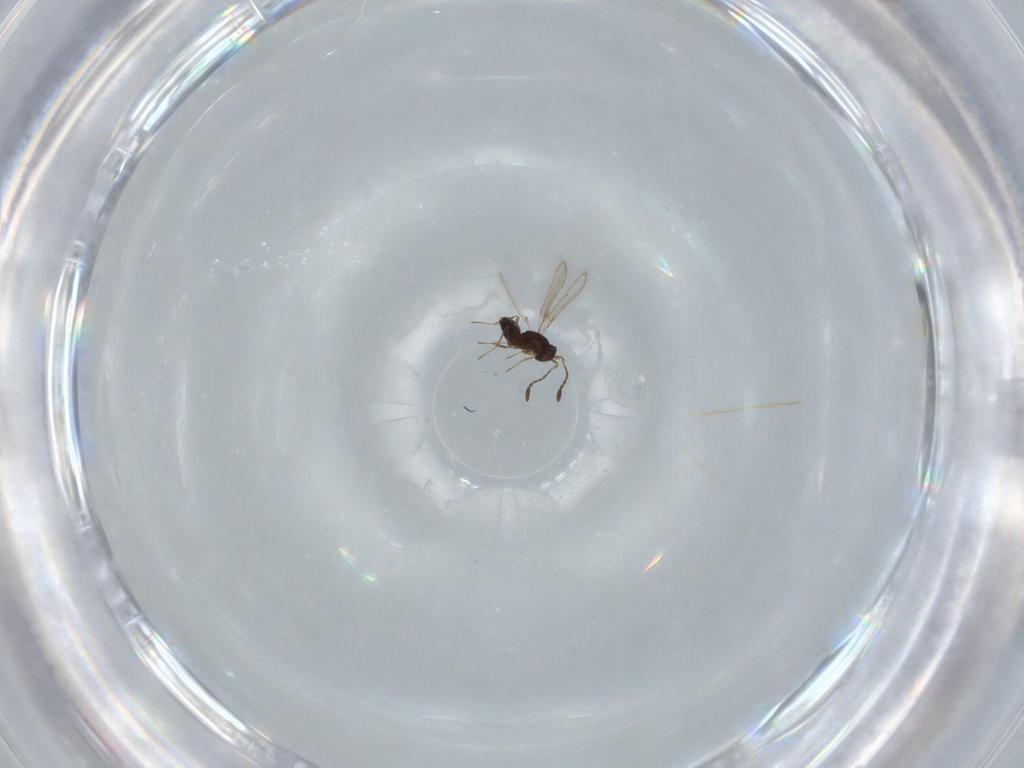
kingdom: Animalia
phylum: Arthropoda
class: Insecta
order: Hymenoptera
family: Mymaridae
